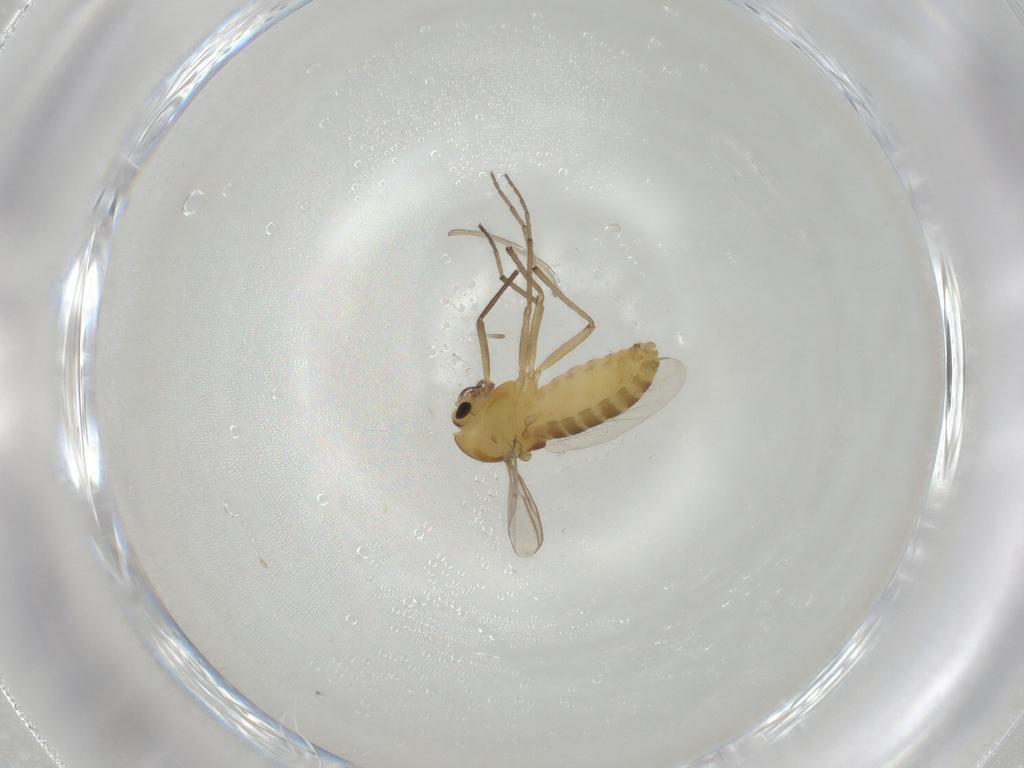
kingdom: Animalia
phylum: Arthropoda
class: Insecta
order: Diptera
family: Chironomidae
